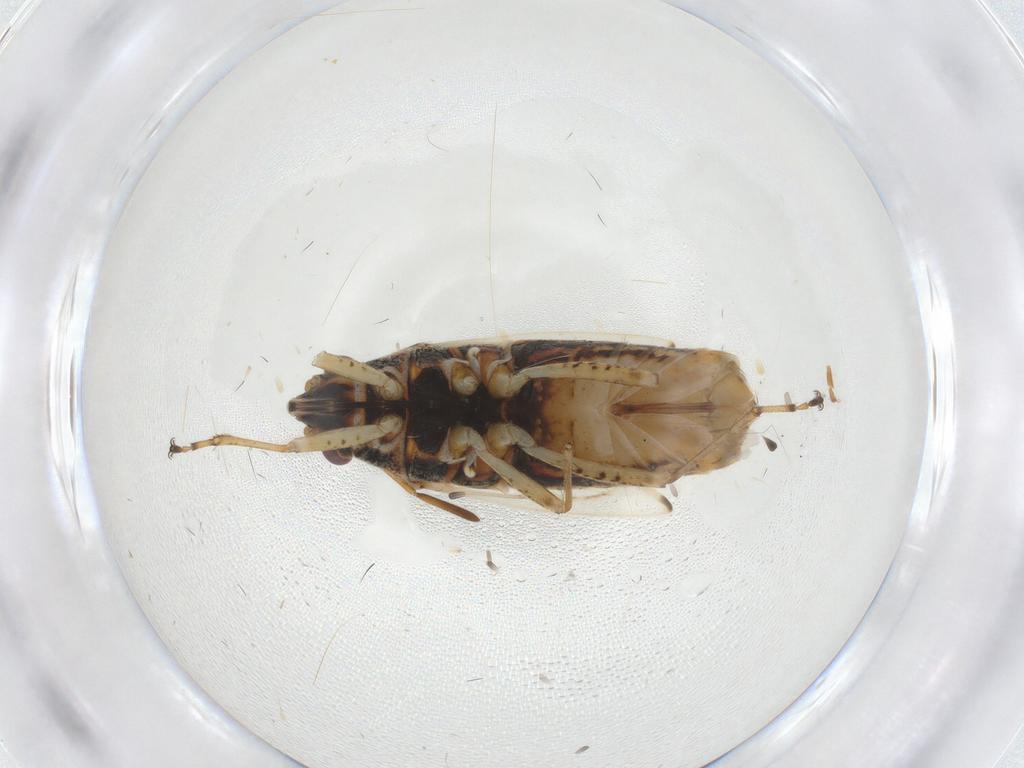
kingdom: Animalia
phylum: Arthropoda
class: Insecta
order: Hemiptera
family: Lygaeidae
